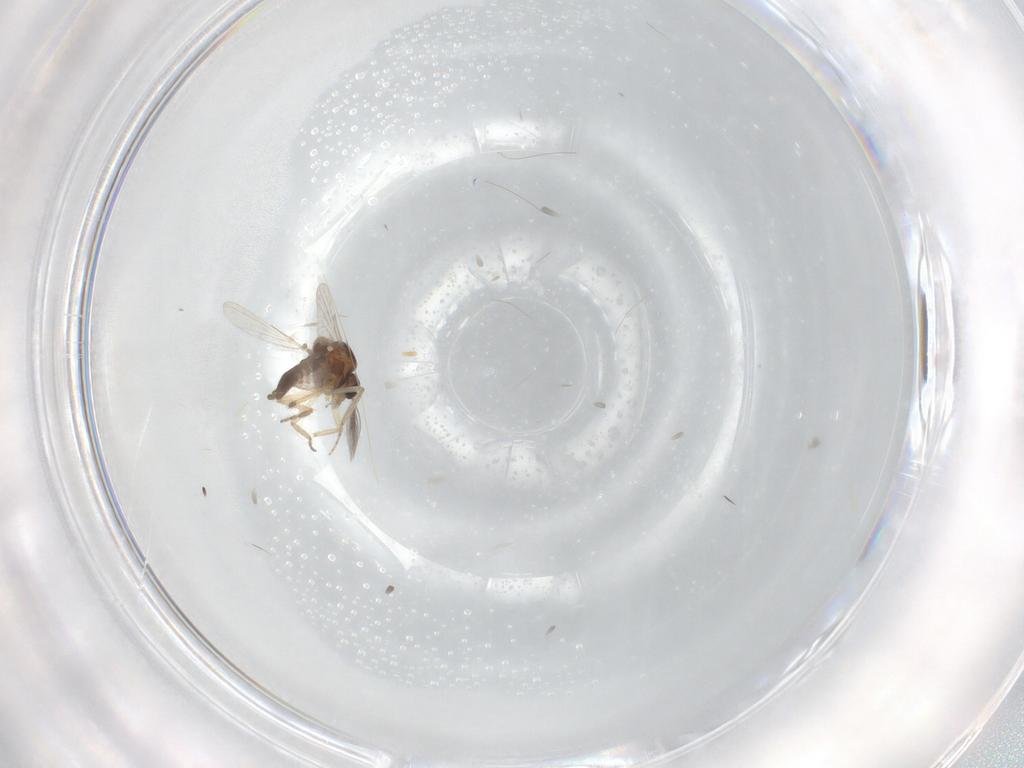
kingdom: Animalia
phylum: Arthropoda
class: Insecta
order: Diptera
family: Ceratopogonidae
